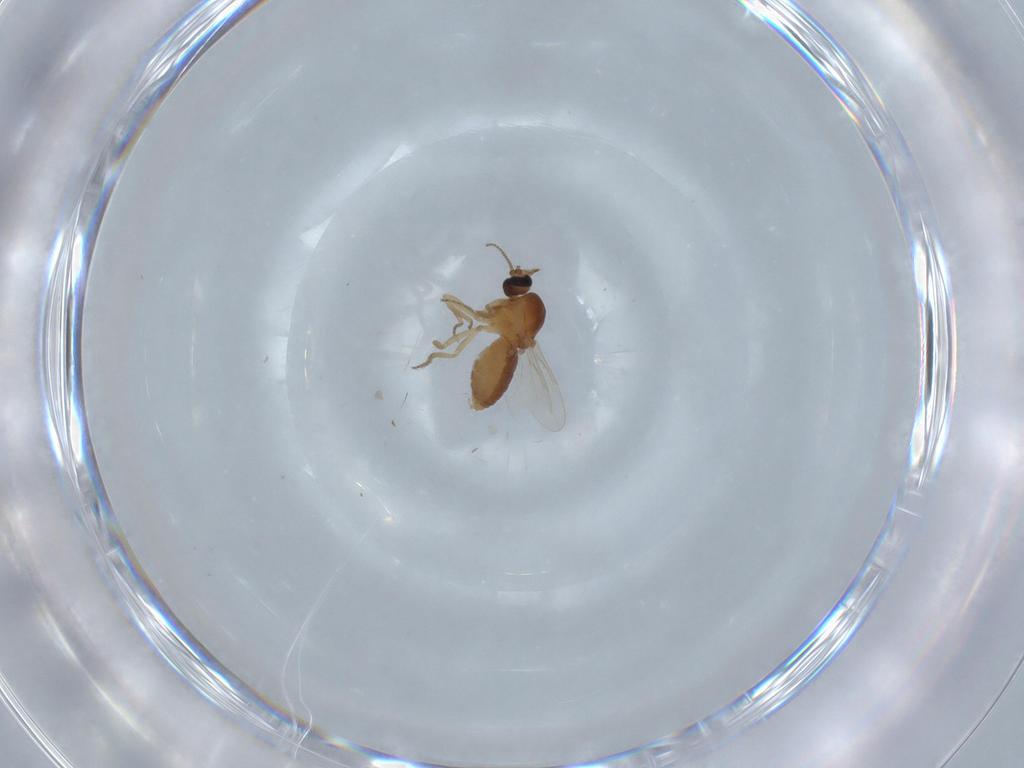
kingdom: Animalia
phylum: Arthropoda
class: Insecta
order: Diptera
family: Ceratopogonidae
